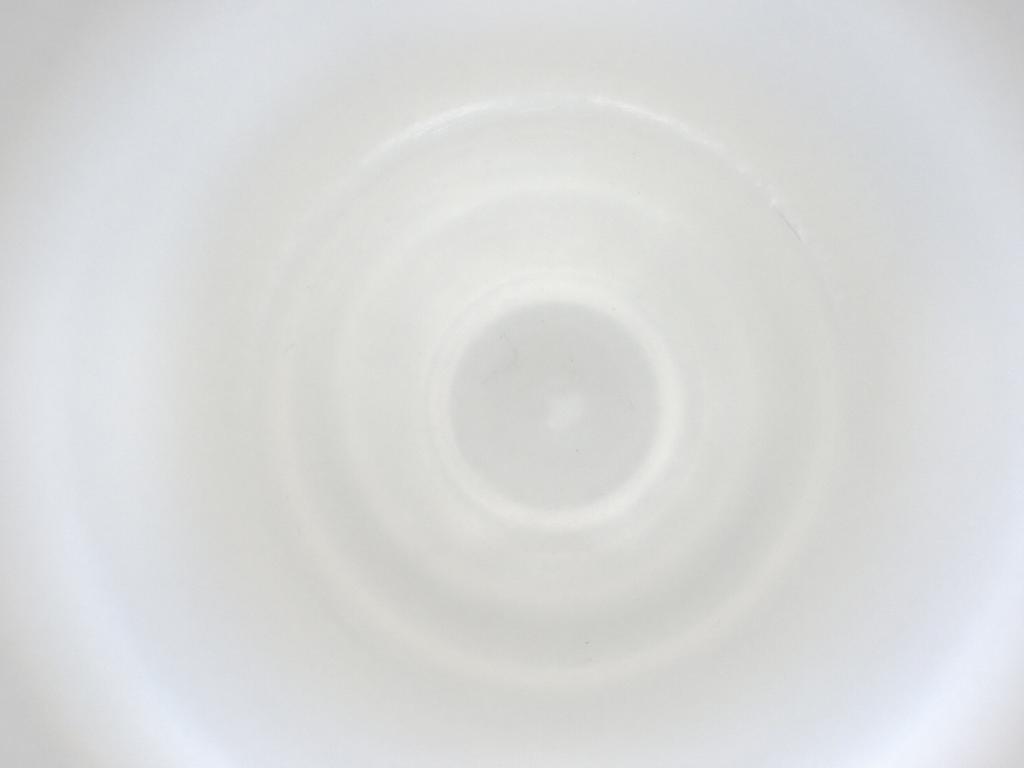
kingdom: Animalia
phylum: Arthropoda
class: Insecta
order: Diptera
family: Cecidomyiidae
